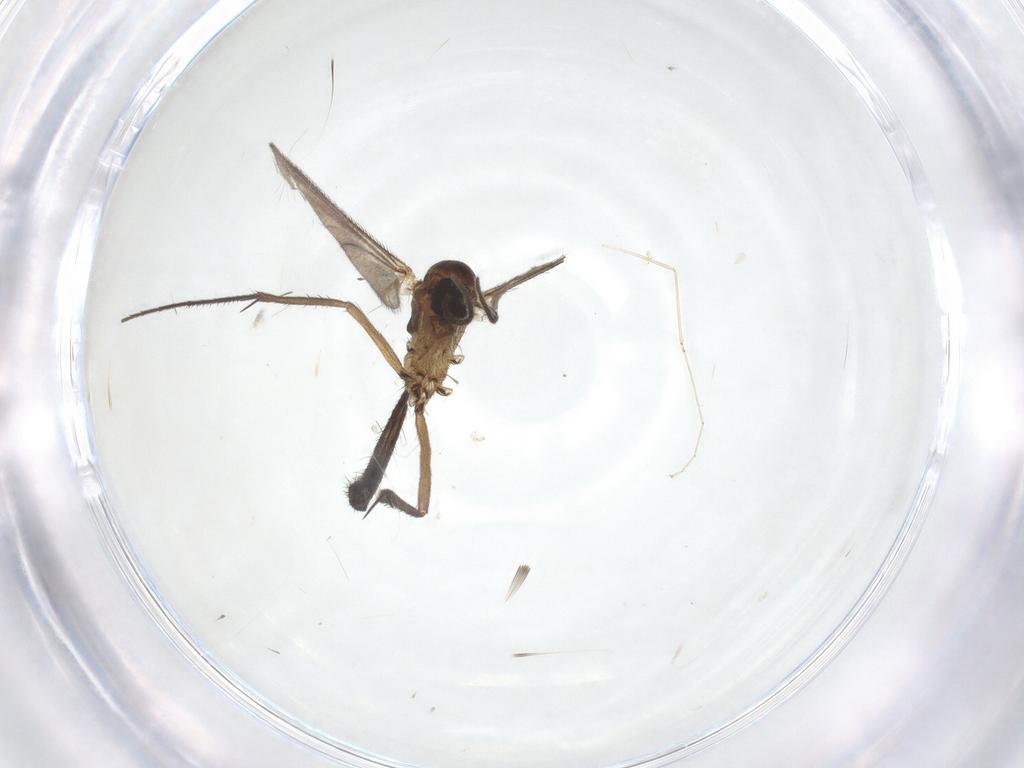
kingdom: Animalia
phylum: Arthropoda
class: Insecta
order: Diptera
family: Mycetophilidae
